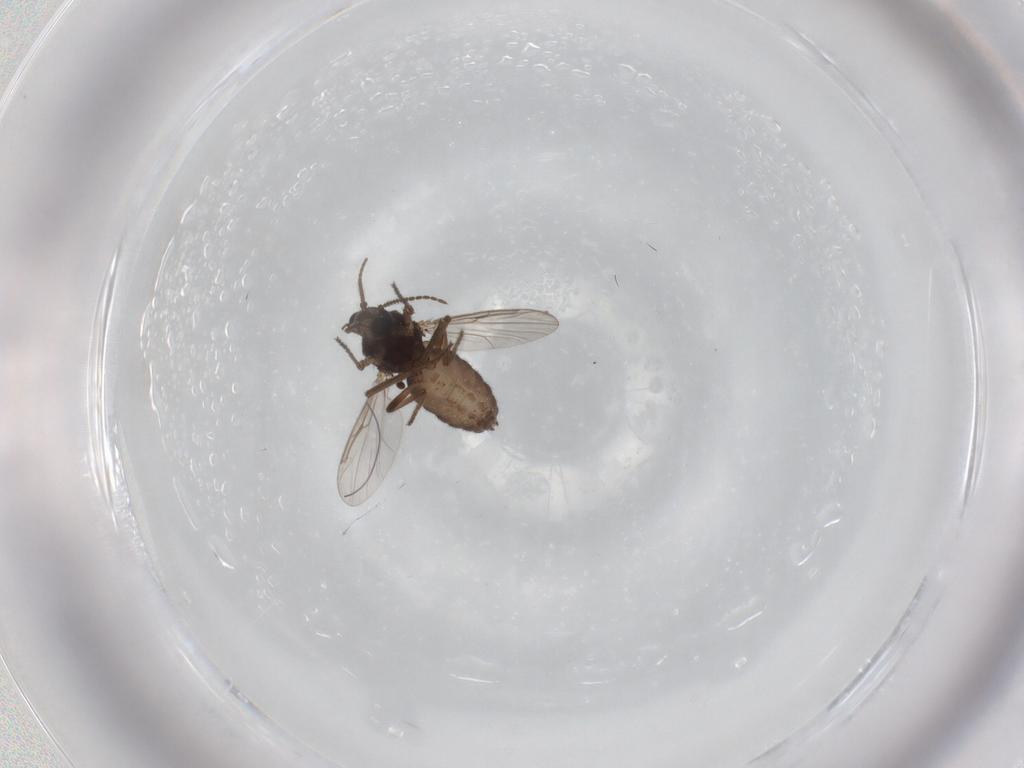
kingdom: Animalia
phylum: Arthropoda
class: Insecta
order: Diptera
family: Ceratopogonidae
